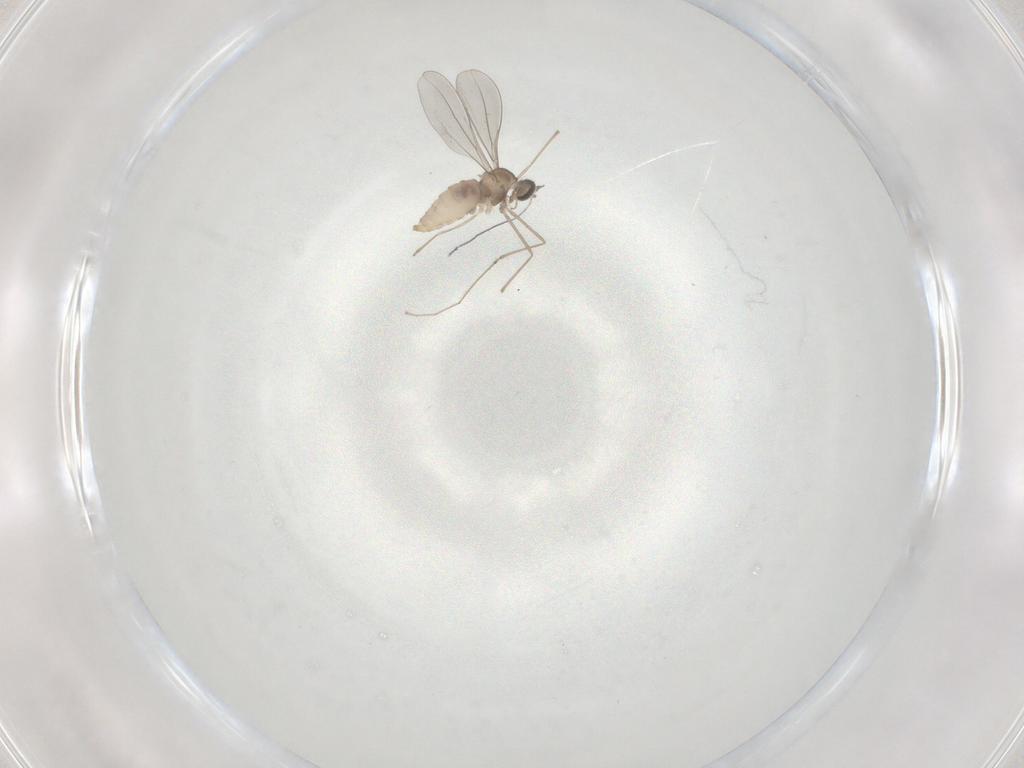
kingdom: Animalia
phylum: Arthropoda
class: Insecta
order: Diptera
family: Cecidomyiidae
